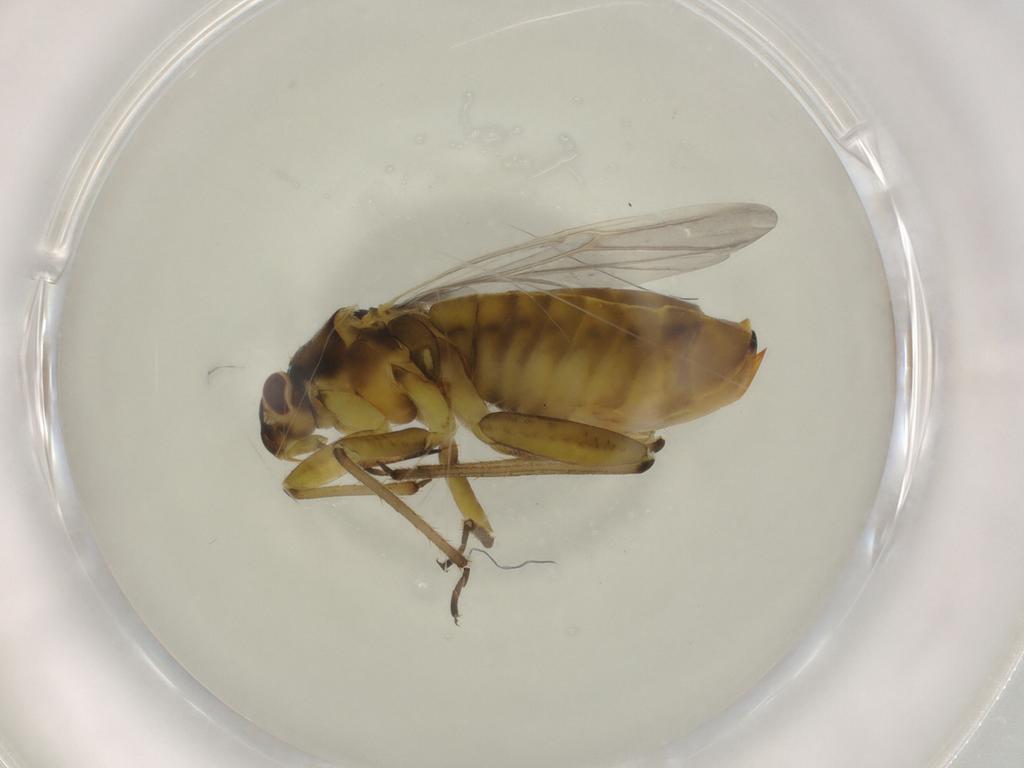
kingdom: Animalia
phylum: Arthropoda
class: Insecta
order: Hemiptera
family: Miridae
